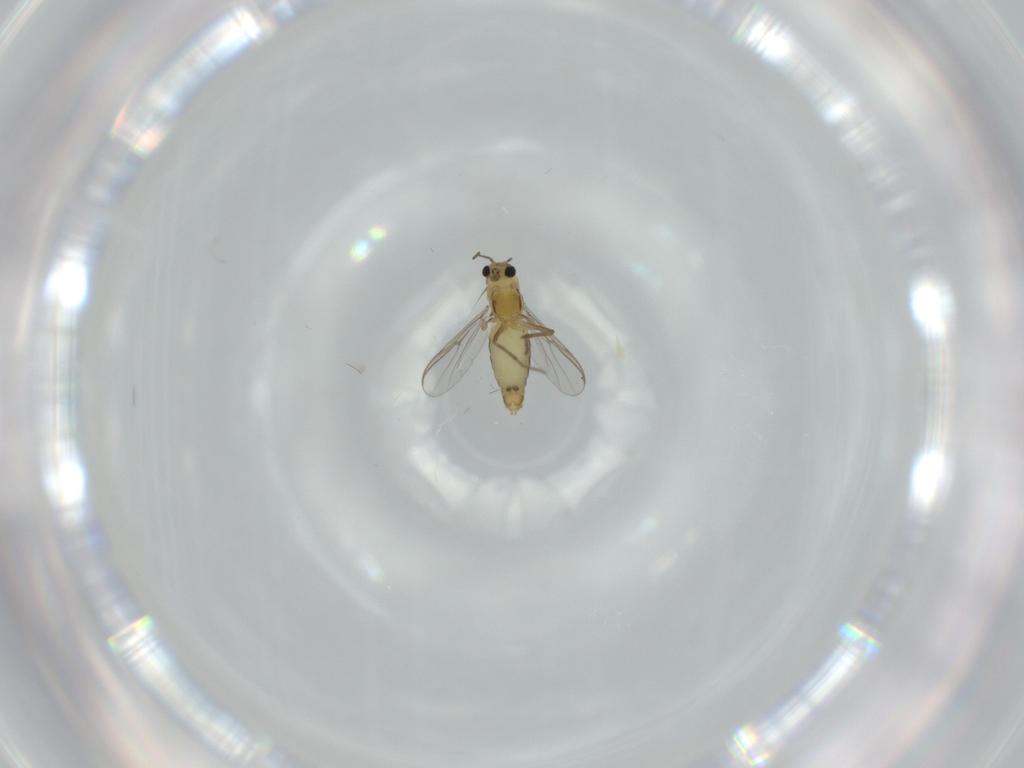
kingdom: Animalia
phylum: Arthropoda
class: Insecta
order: Diptera
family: Chironomidae
